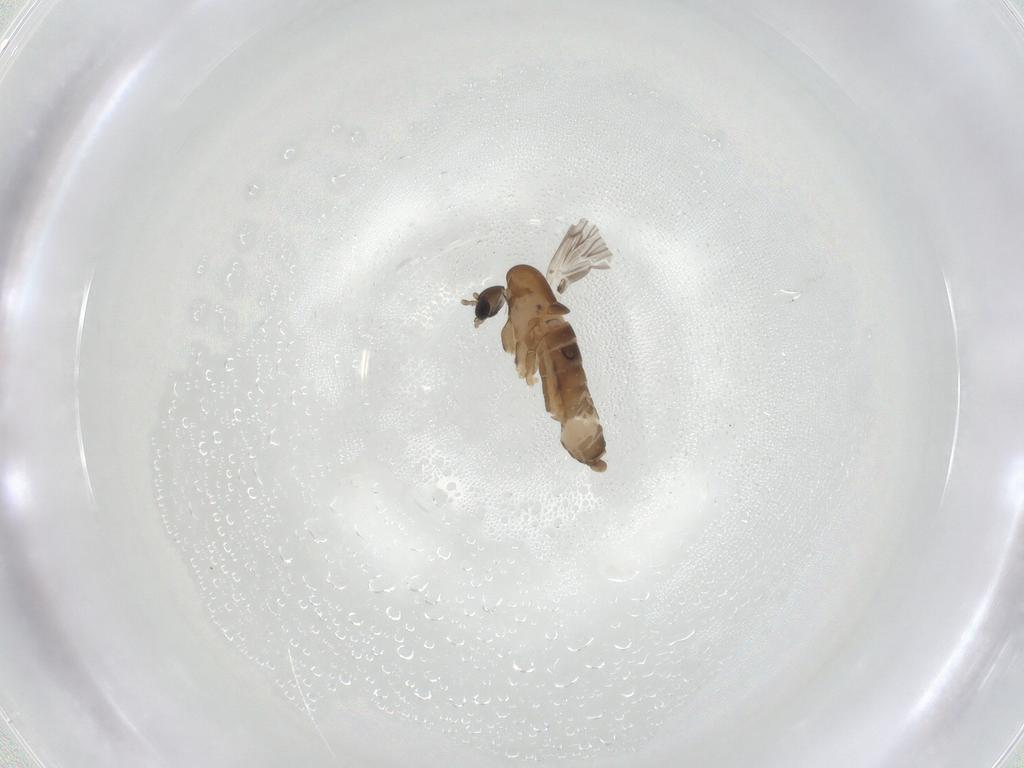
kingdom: Animalia
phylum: Arthropoda
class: Insecta
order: Diptera
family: Psychodidae
